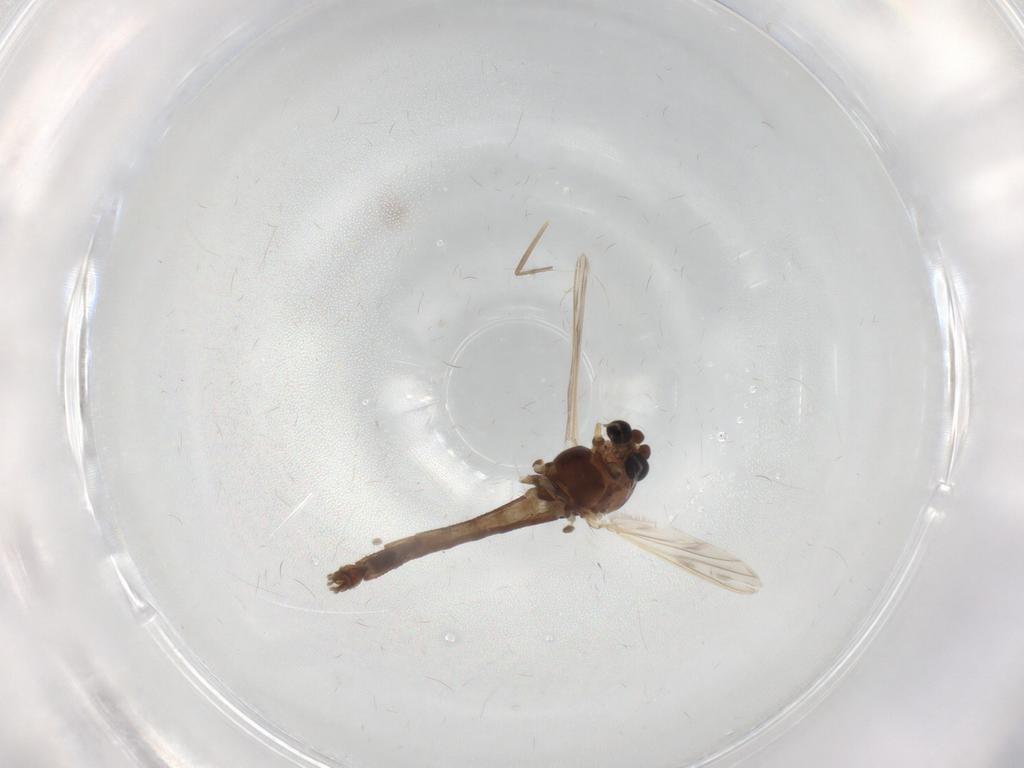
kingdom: Animalia
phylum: Arthropoda
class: Insecta
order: Diptera
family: Chironomidae
